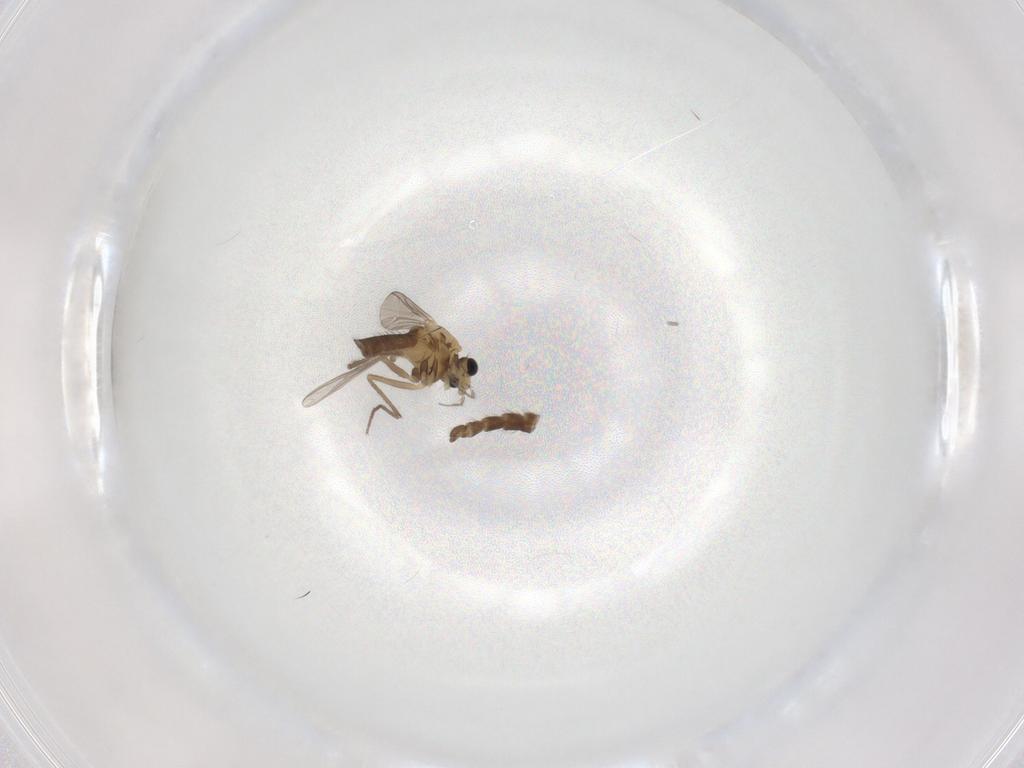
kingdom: Animalia
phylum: Arthropoda
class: Insecta
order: Diptera
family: Chironomidae
